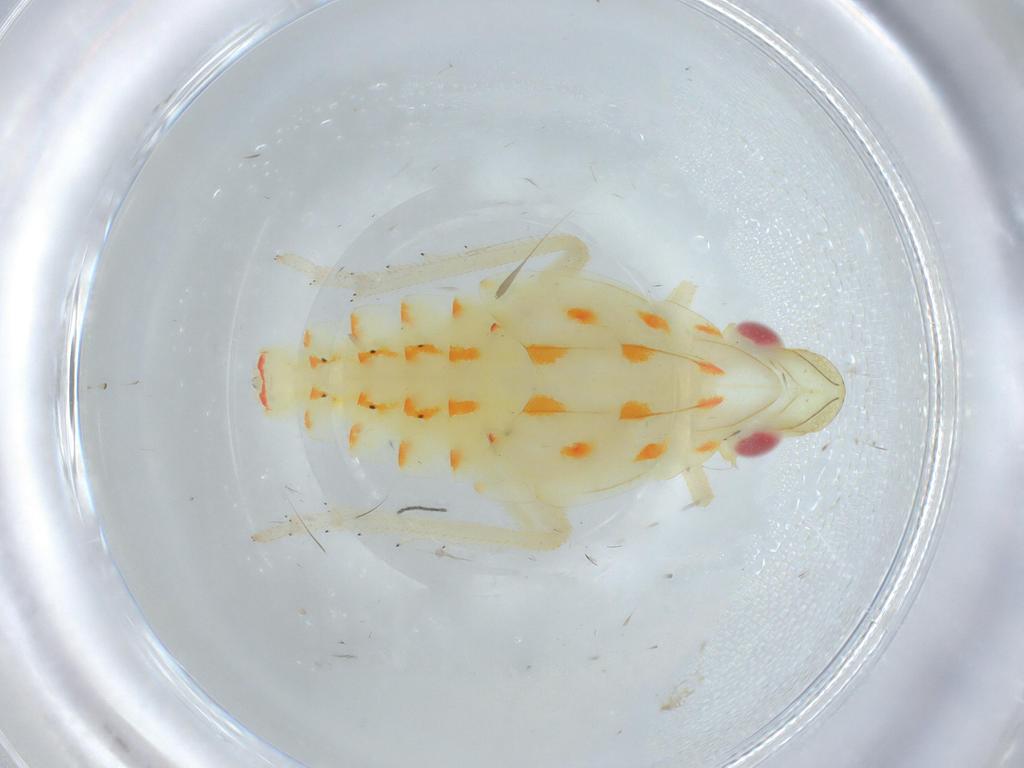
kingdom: Animalia
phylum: Arthropoda
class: Insecta
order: Hemiptera
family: Tropiduchidae
